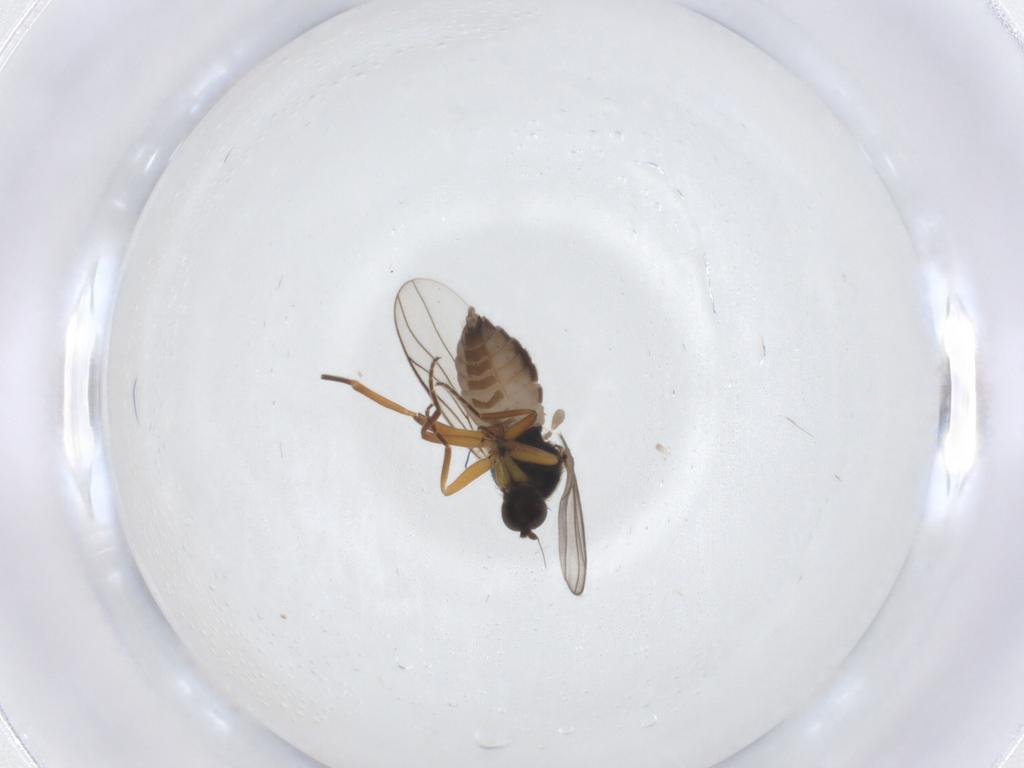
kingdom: Animalia
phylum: Arthropoda
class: Insecta
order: Diptera
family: Hybotidae
